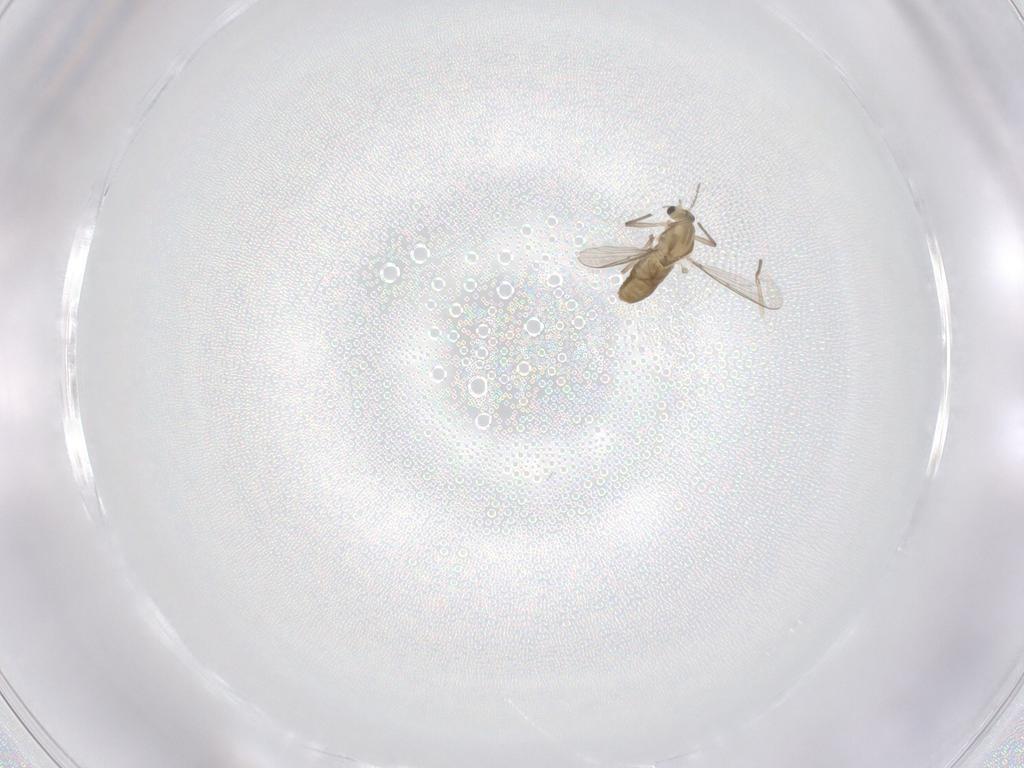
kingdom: Animalia
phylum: Arthropoda
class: Insecta
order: Diptera
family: Chironomidae
